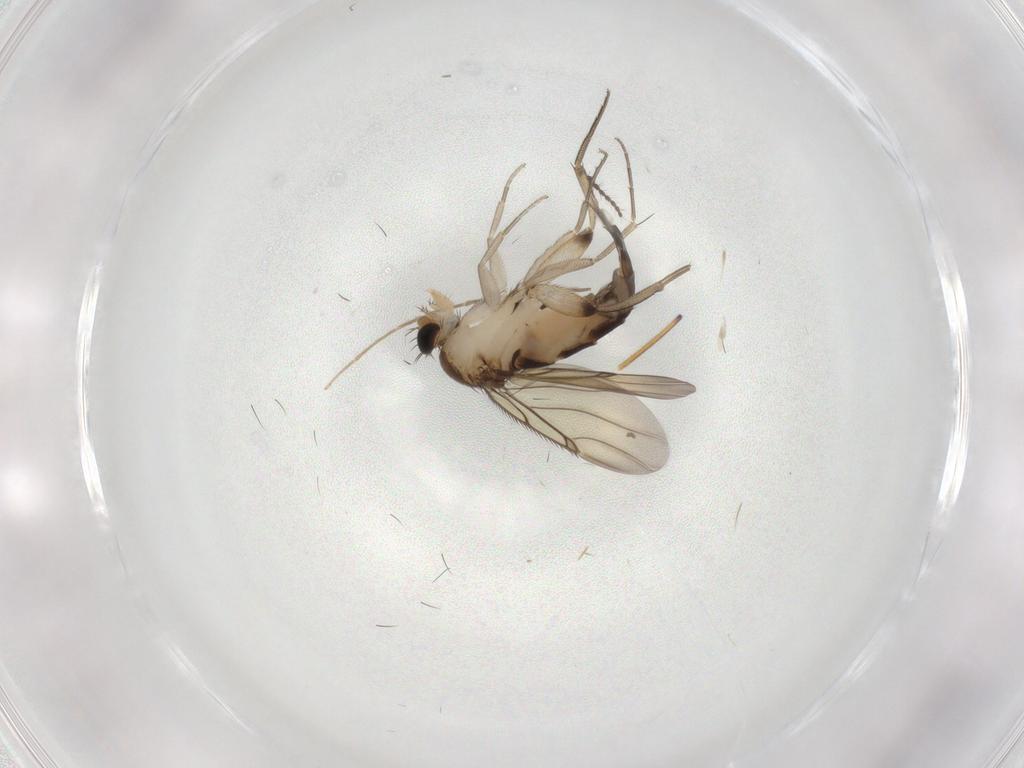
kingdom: Animalia
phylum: Arthropoda
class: Insecta
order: Diptera
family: Phoridae
